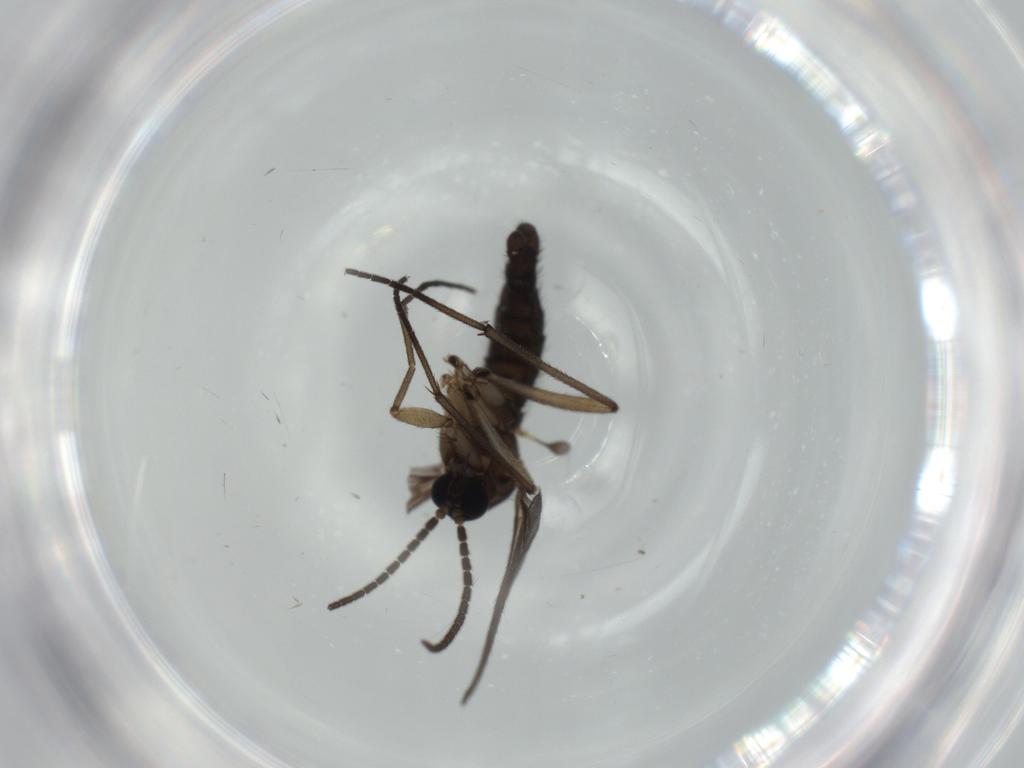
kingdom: Animalia
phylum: Arthropoda
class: Insecta
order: Diptera
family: Sciaridae
